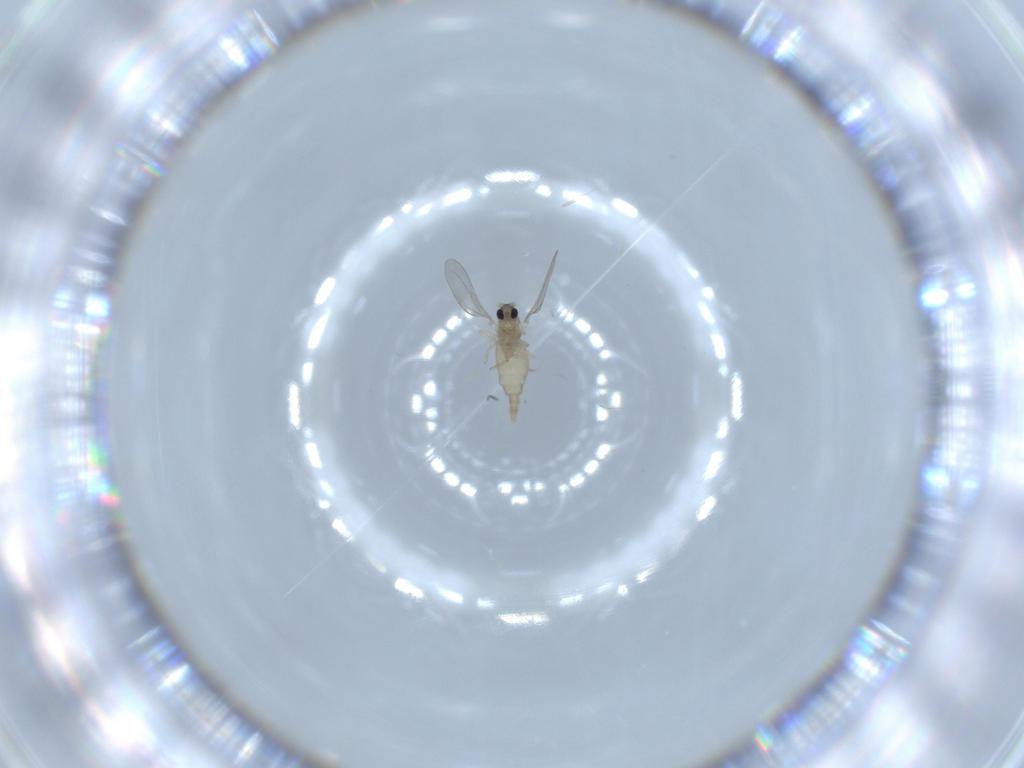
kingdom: Animalia
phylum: Arthropoda
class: Insecta
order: Diptera
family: Cecidomyiidae
